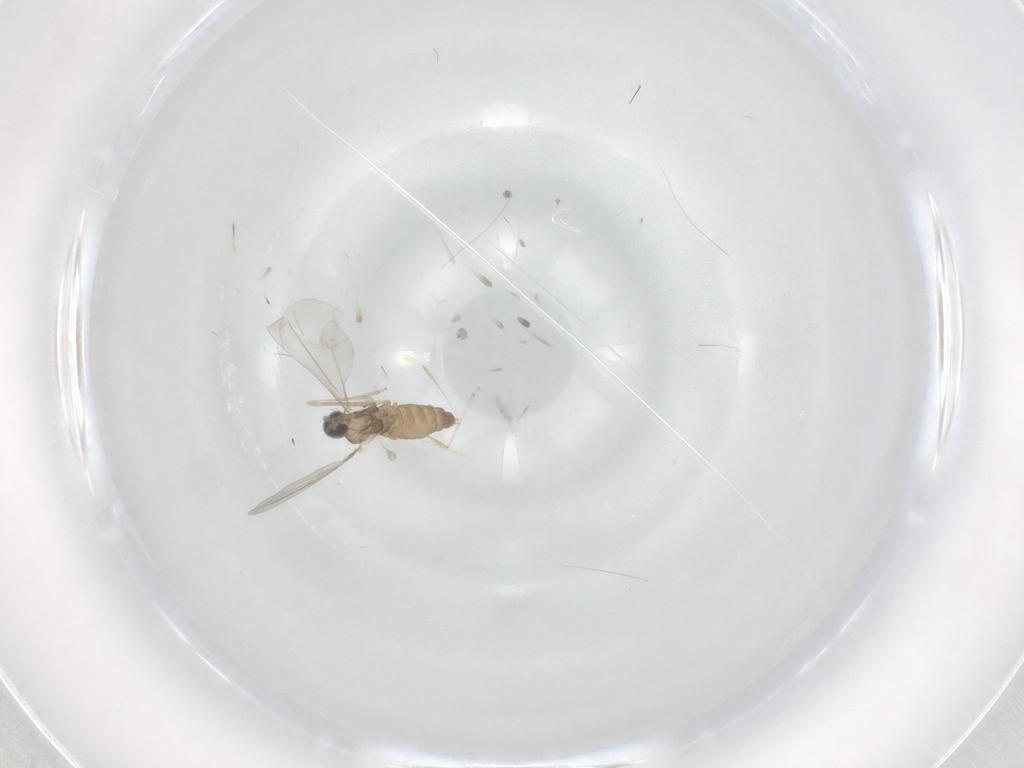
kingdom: Animalia
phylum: Arthropoda
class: Insecta
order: Diptera
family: Ceratopogonidae
